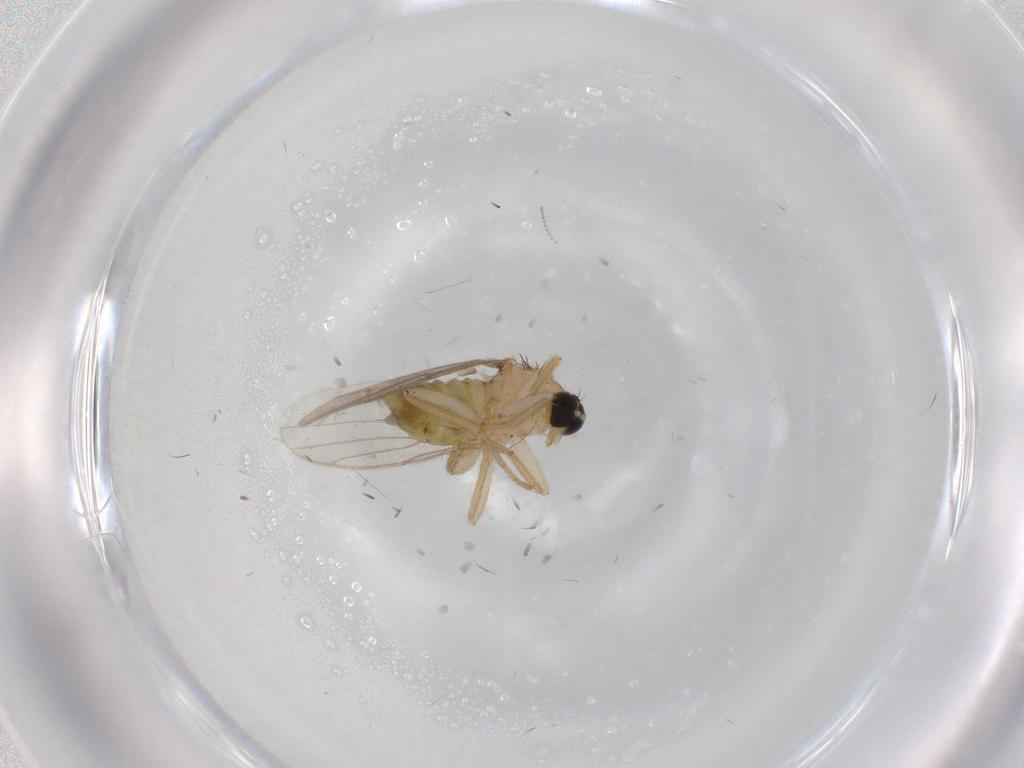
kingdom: Animalia
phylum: Arthropoda
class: Insecta
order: Diptera
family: Hybotidae
